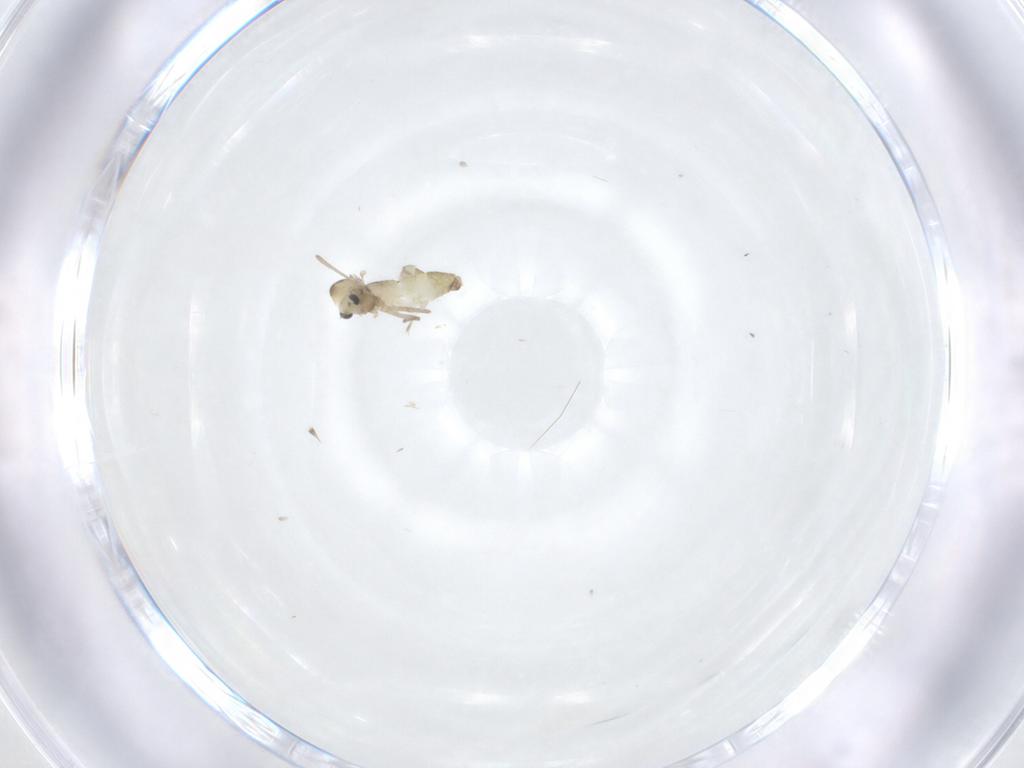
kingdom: Animalia
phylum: Arthropoda
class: Insecta
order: Diptera
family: Chironomidae
